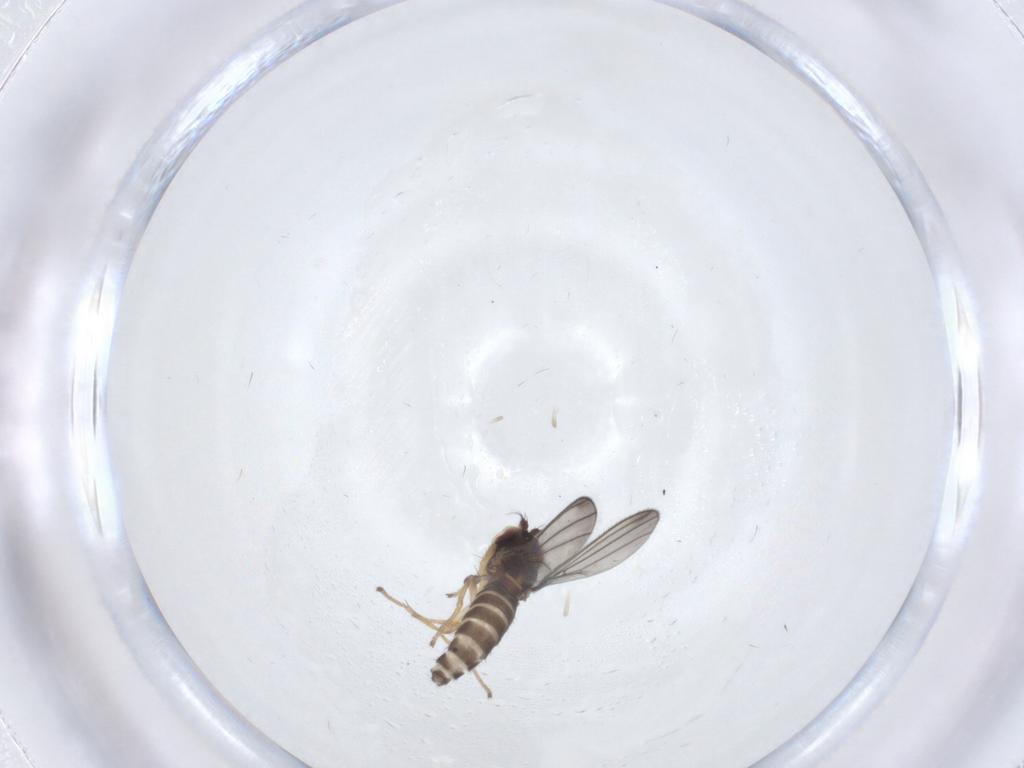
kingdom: Animalia
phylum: Arthropoda
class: Insecta
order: Diptera
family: Anthomyzidae
